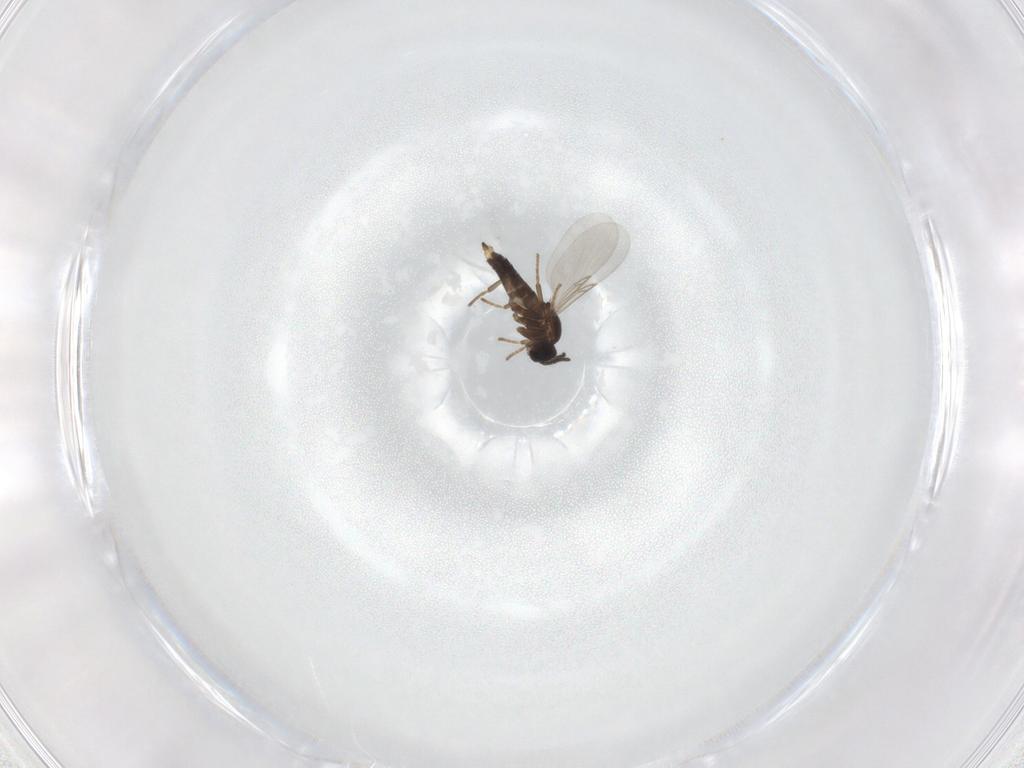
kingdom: Animalia
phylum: Arthropoda
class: Insecta
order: Diptera
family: Scatopsidae
